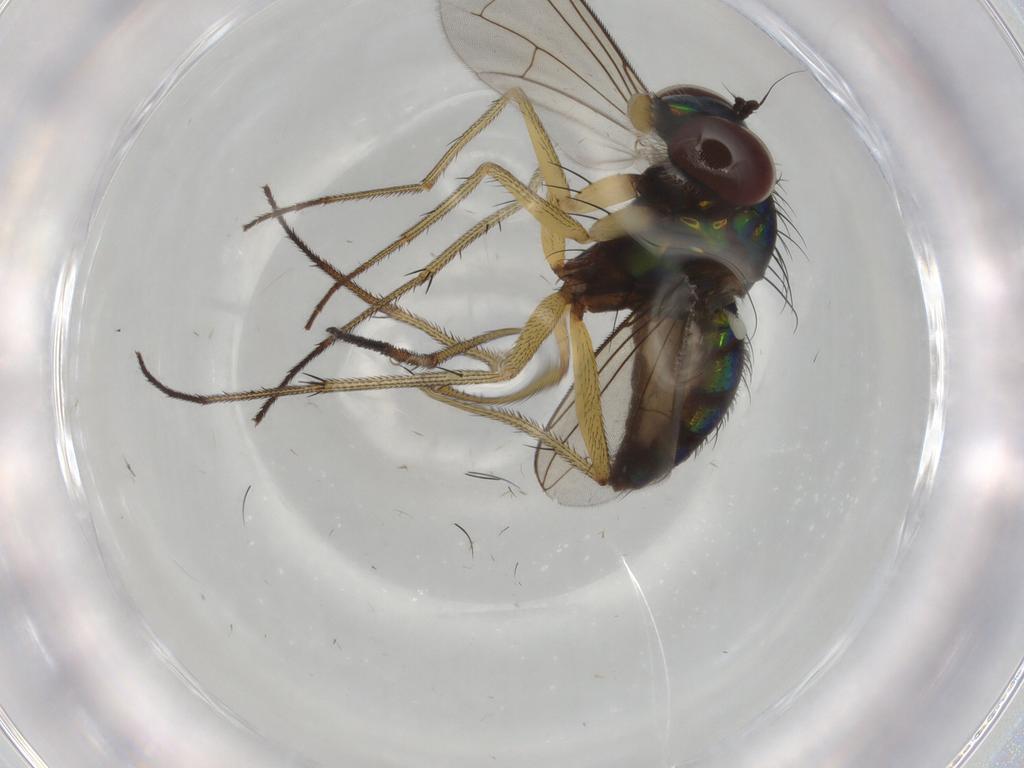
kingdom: Animalia
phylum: Arthropoda
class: Insecta
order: Diptera
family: Dolichopodidae
